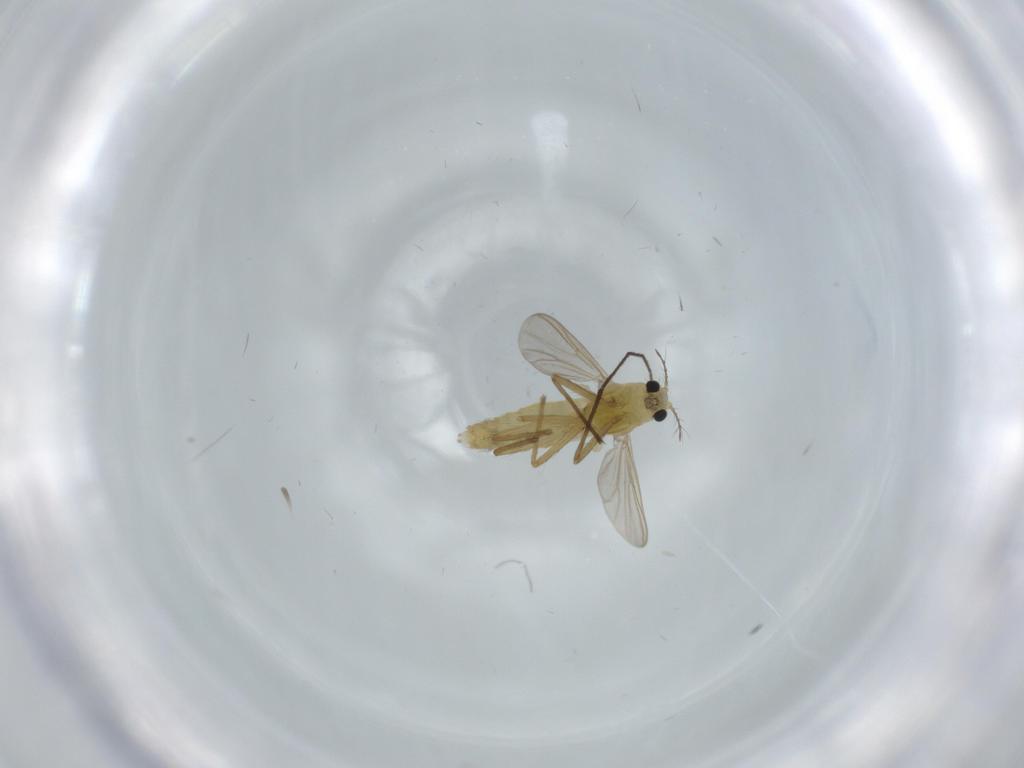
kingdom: Animalia
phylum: Arthropoda
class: Insecta
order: Diptera
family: Chironomidae
